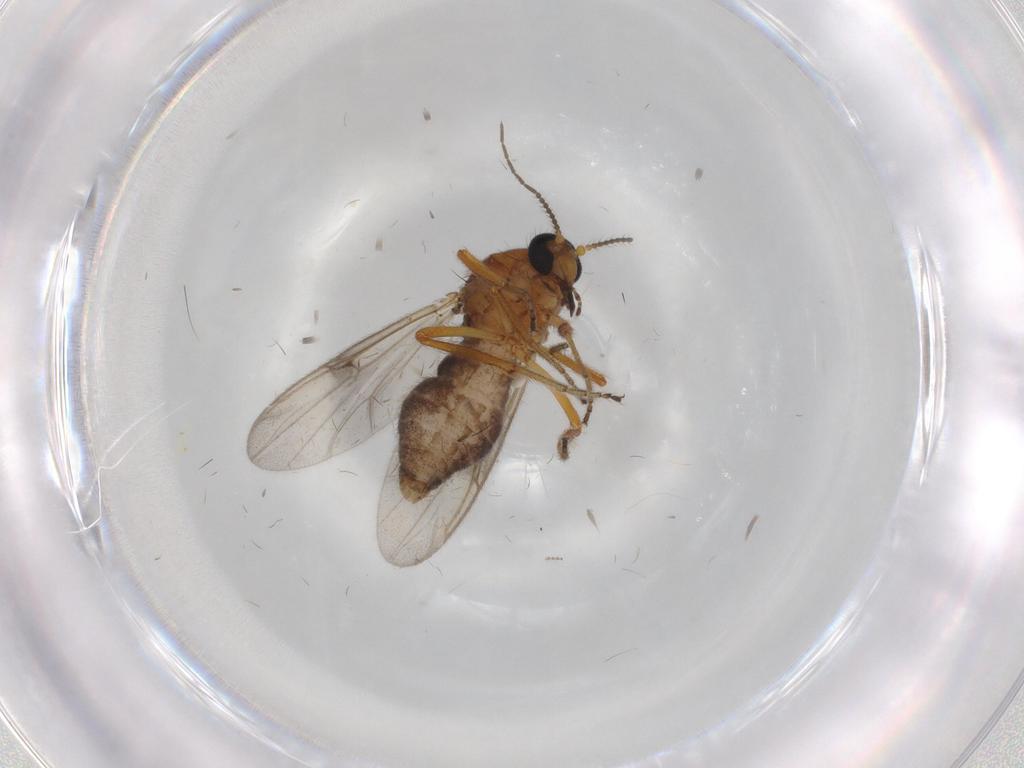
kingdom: Animalia
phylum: Arthropoda
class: Insecta
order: Diptera
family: Ceratopogonidae
